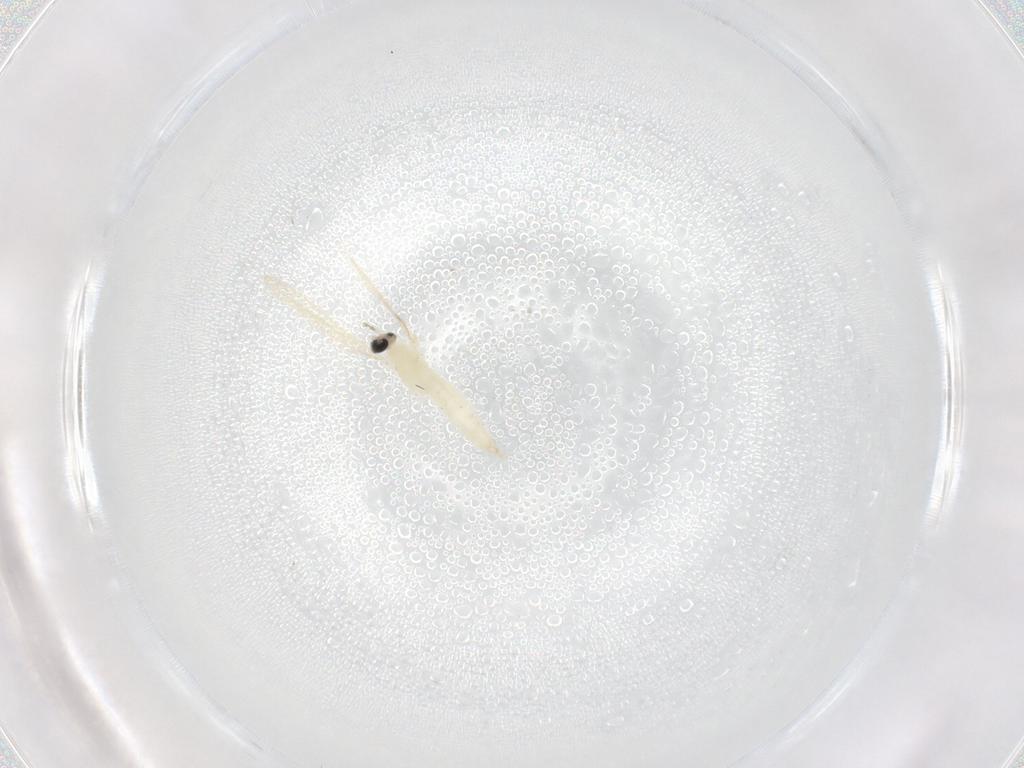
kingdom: Animalia
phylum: Arthropoda
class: Insecta
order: Diptera
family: Cecidomyiidae
